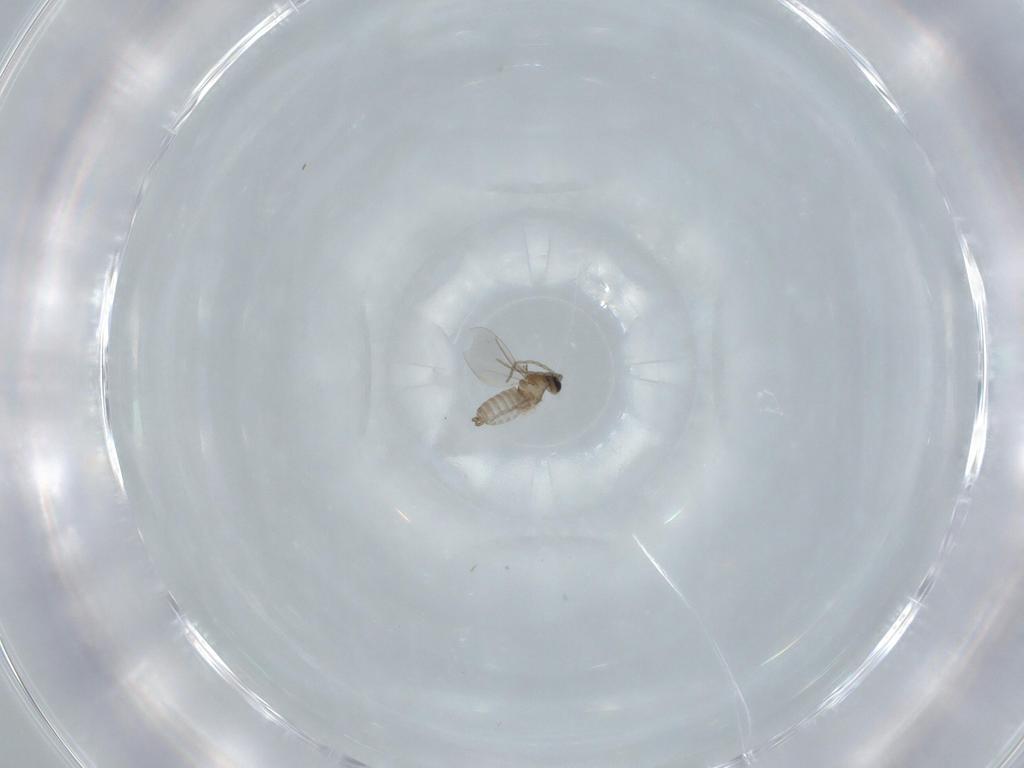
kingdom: Animalia
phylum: Arthropoda
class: Insecta
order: Diptera
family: Cecidomyiidae
